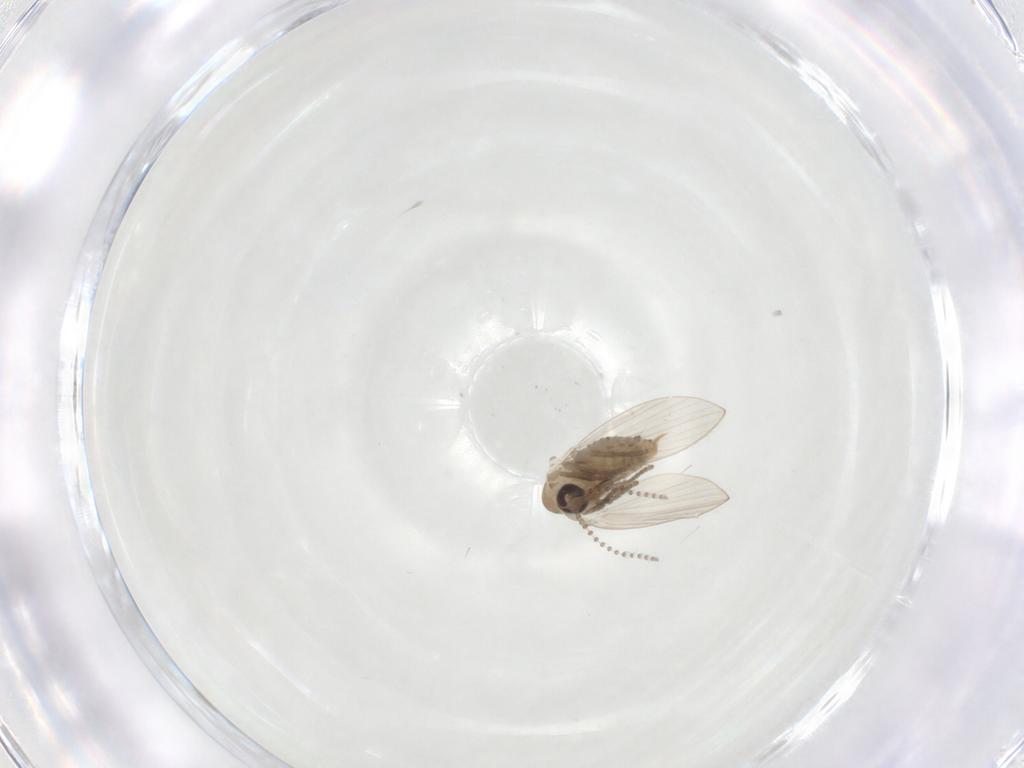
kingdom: Animalia
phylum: Arthropoda
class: Insecta
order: Diptera
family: Psychodidae
